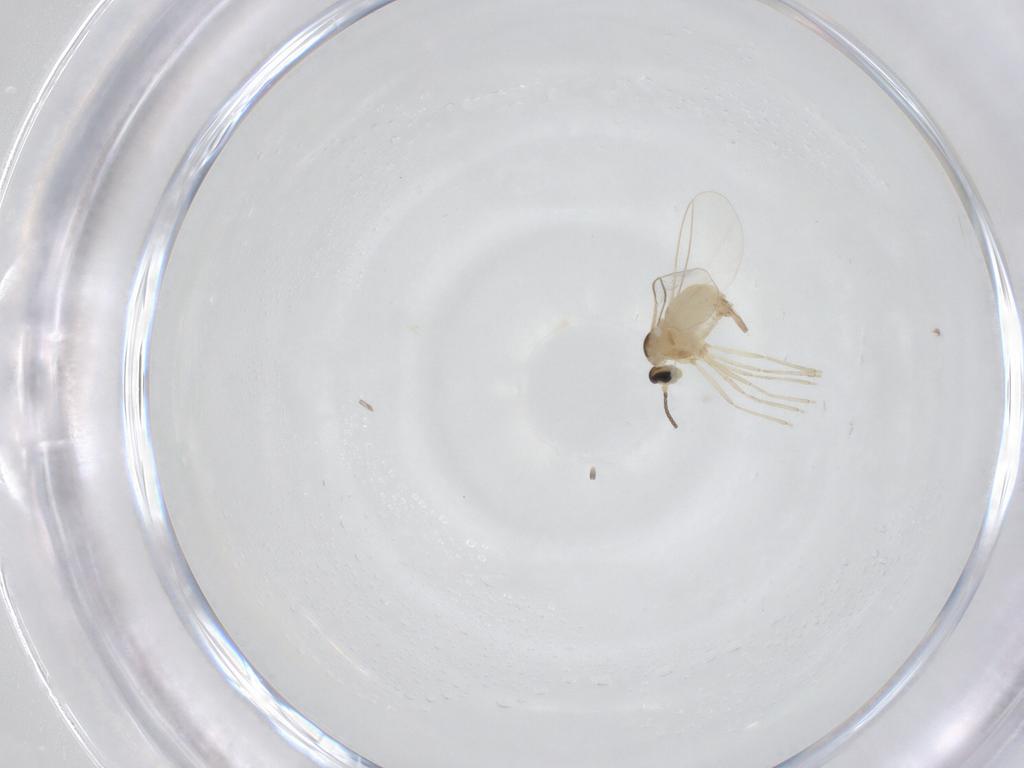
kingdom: Animalia
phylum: Arthropoda
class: Insecta
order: Diptera
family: Cecidomyiidae
